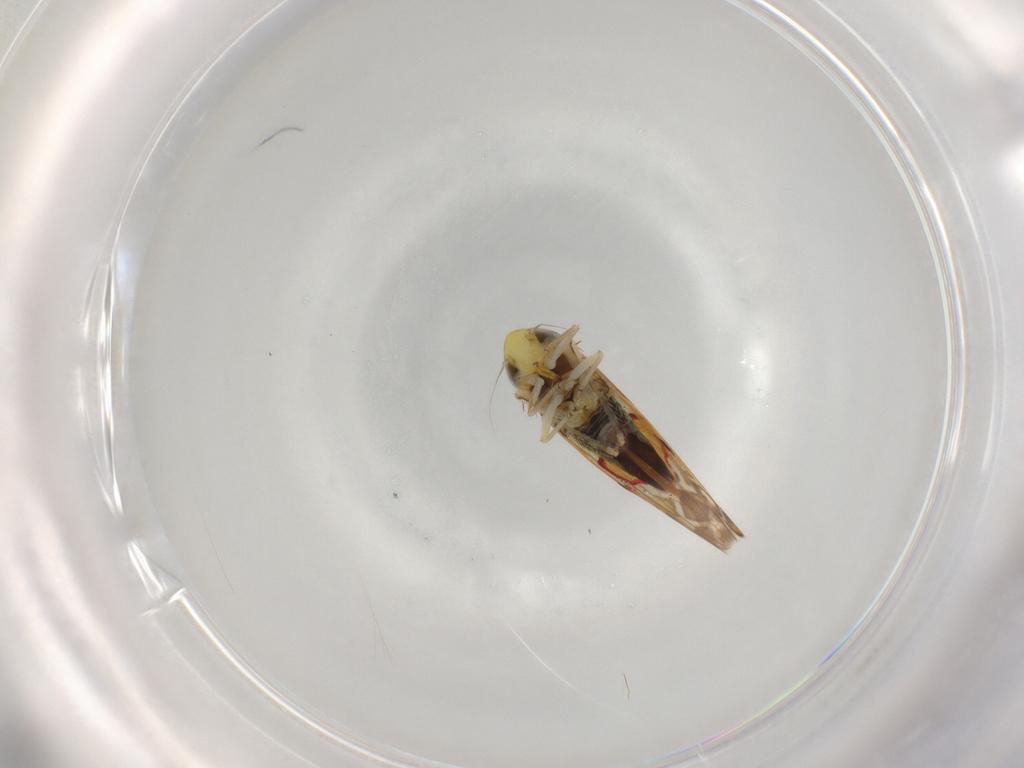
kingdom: Animalia
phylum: Arthropoda
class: Insecta
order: Hemiptera
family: Cicadellidae
